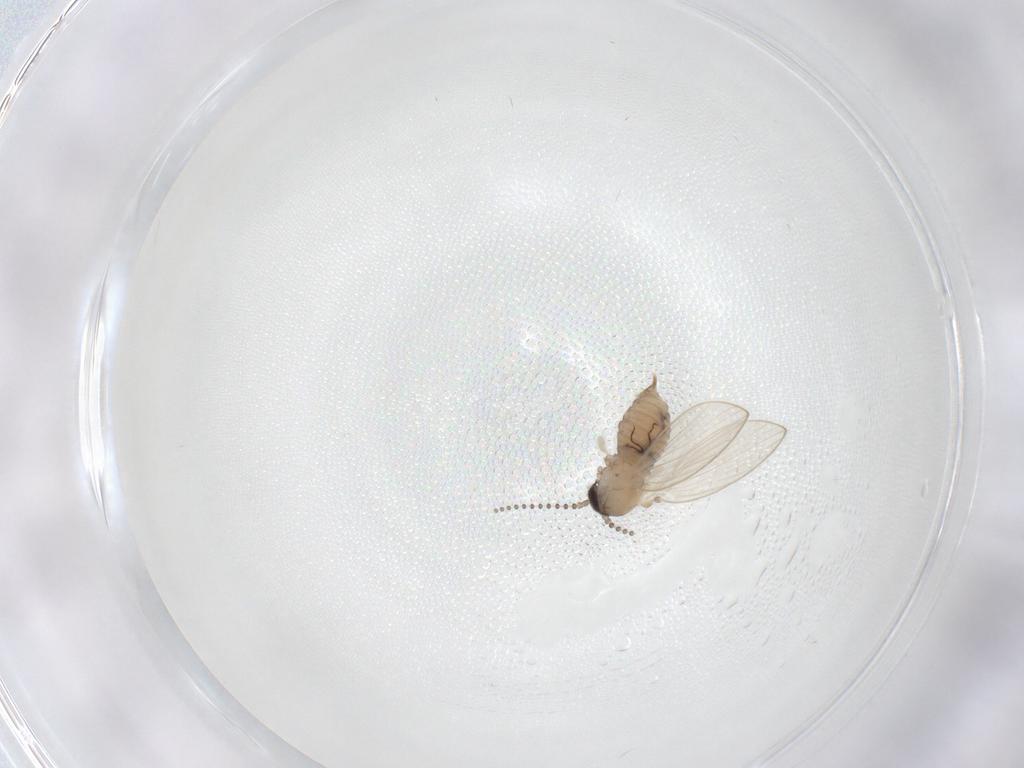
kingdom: Animalia
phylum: Arthropoda
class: Insecta
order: Diptera
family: Psychodidae
